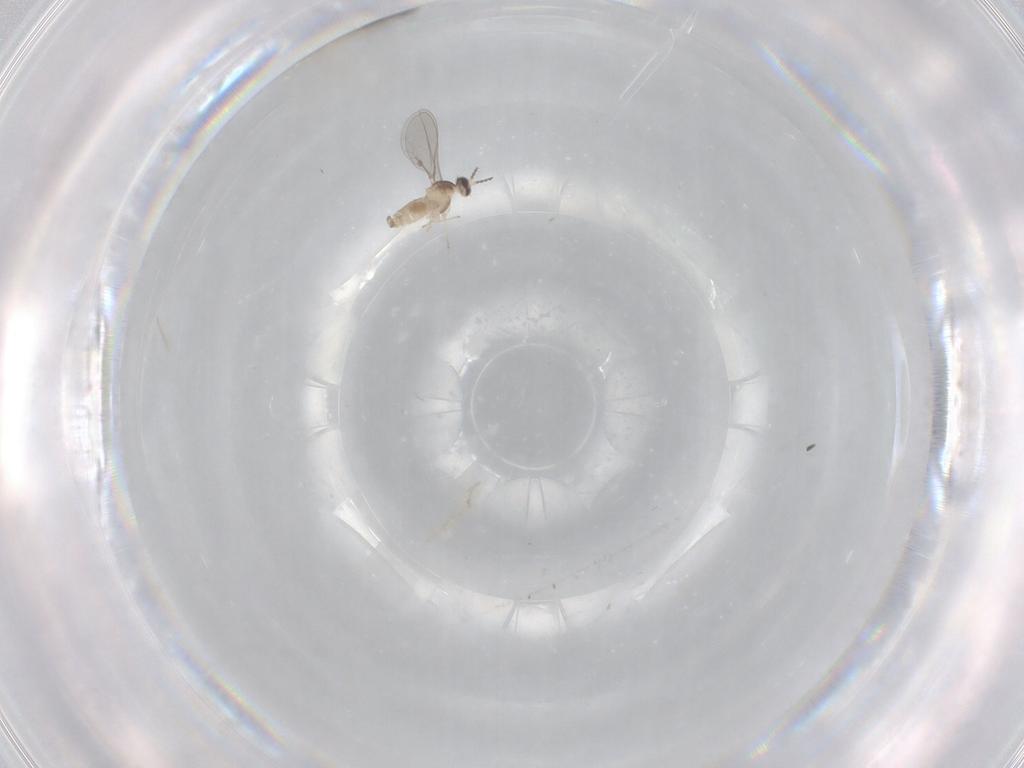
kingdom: Animalia
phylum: Arthropoda
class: Insecta
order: Diptera
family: Cecidomyiidae
